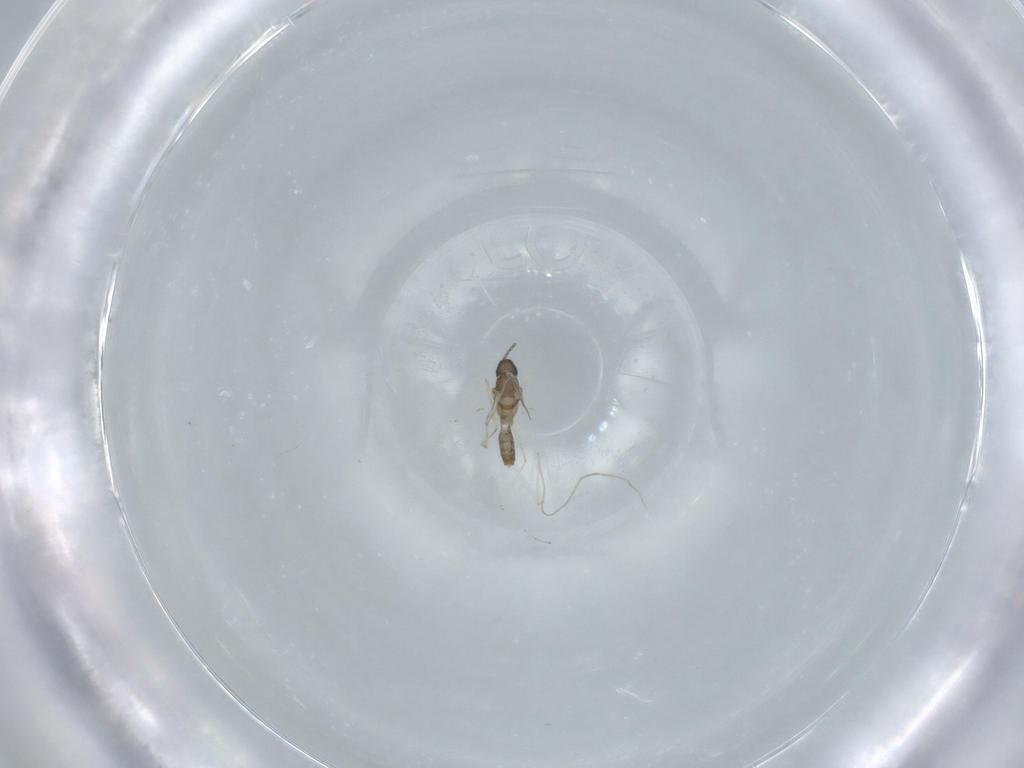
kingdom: Animalia
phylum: Arthropoda
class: Insecta
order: Diptera
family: Cecidomyiidae
